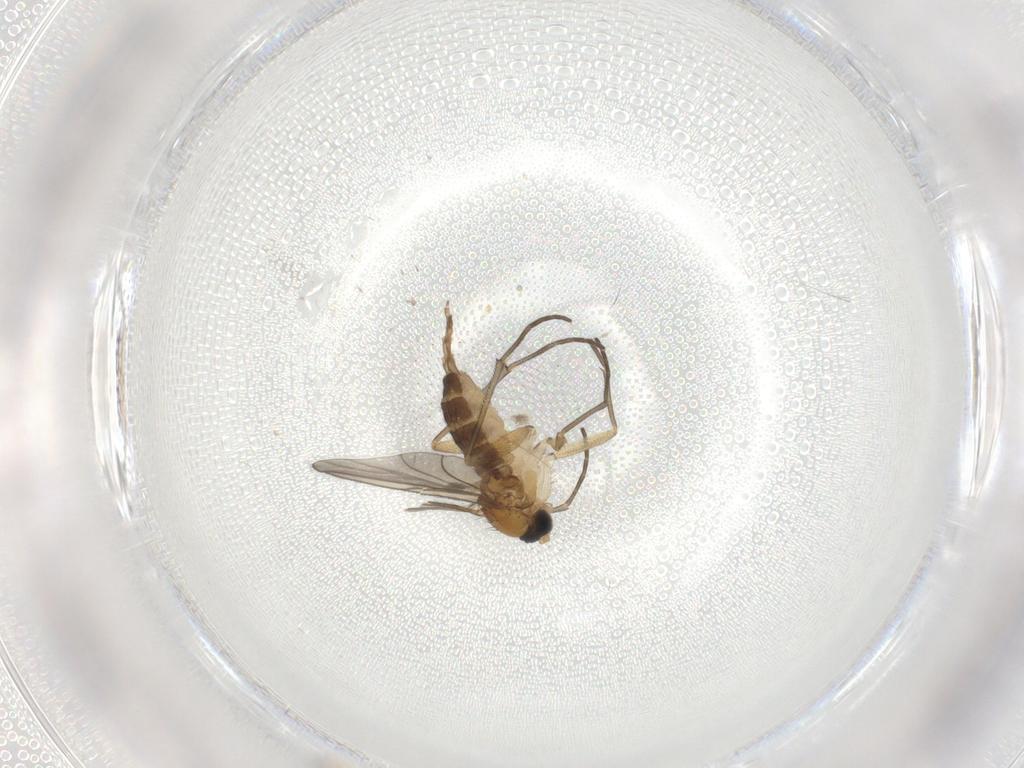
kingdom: Animalia
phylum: Arthropoda
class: Insecta
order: Diptera
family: Sciaridae
